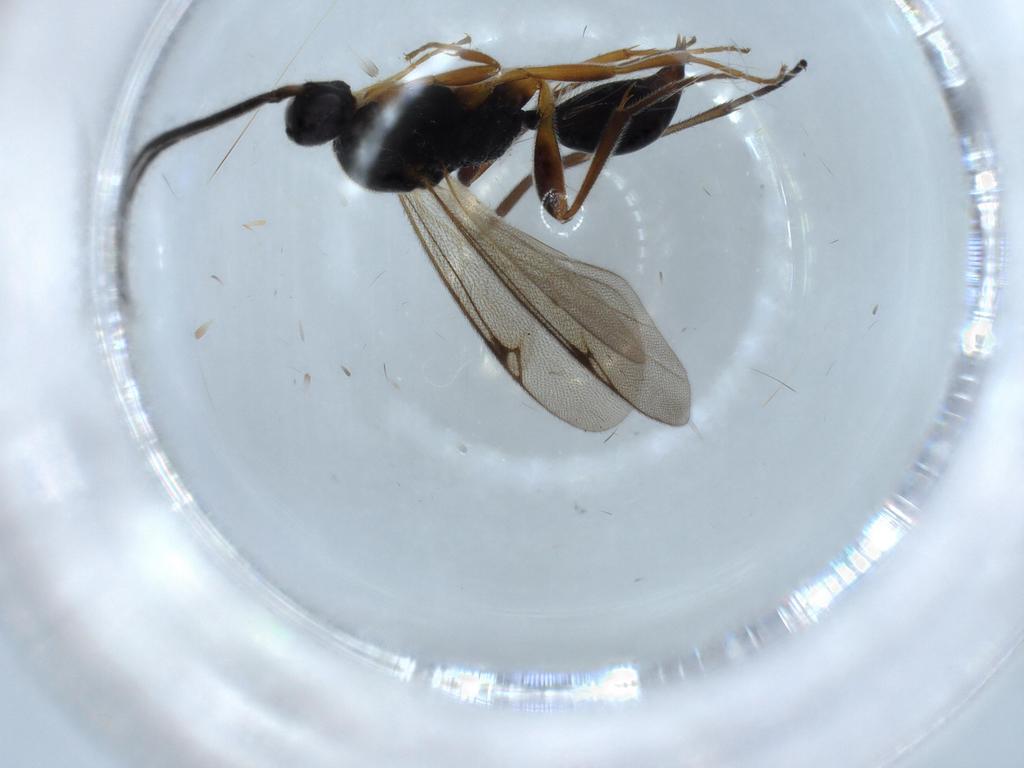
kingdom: Animalia
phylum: Arthropoda
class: Insecta
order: Hymenoptera
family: Proctotrupidae
